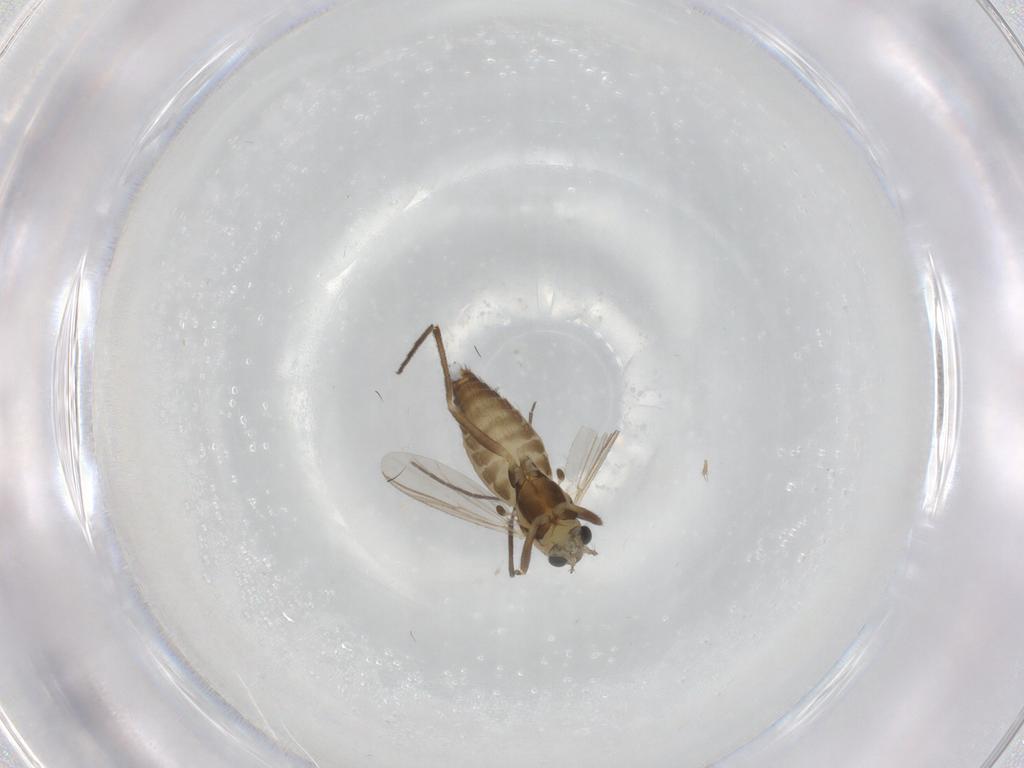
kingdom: Animalia
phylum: Arthropoda
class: Insecta
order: Diptera
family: Chironomidae
